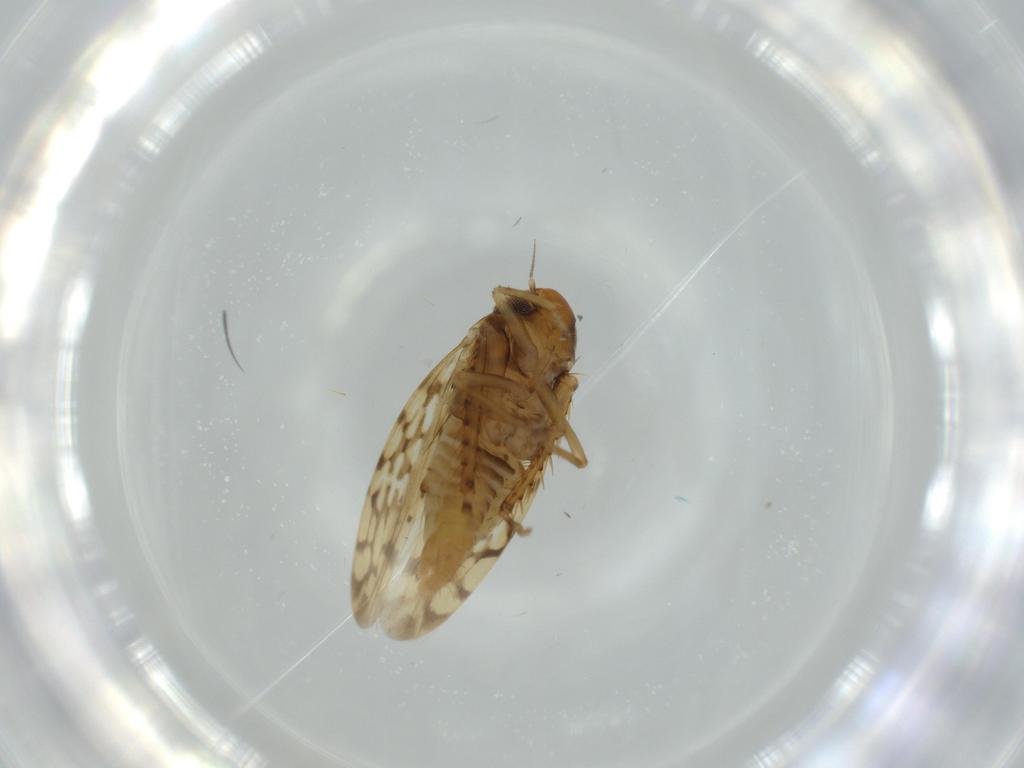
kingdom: Animalia
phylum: Arthropoda
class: Insecta
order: Hemiptera
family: Cicadellidae
